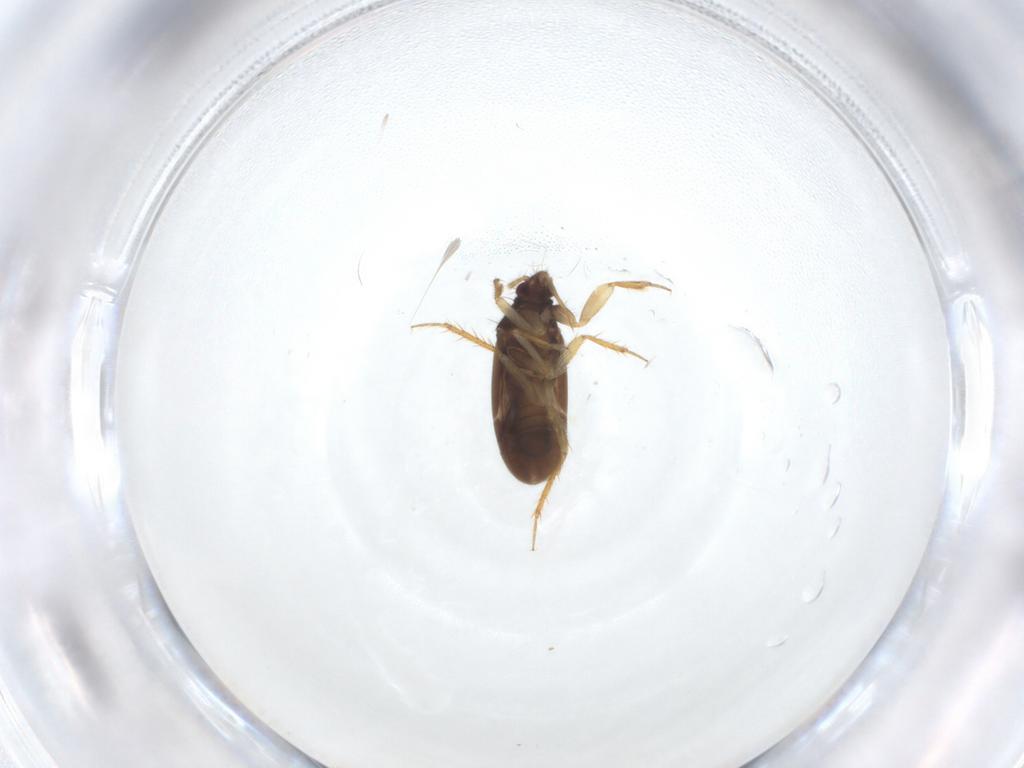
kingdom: Animalia
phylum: Arthropoda
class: Insecta
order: Hemiptera
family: Ceratocombidae
